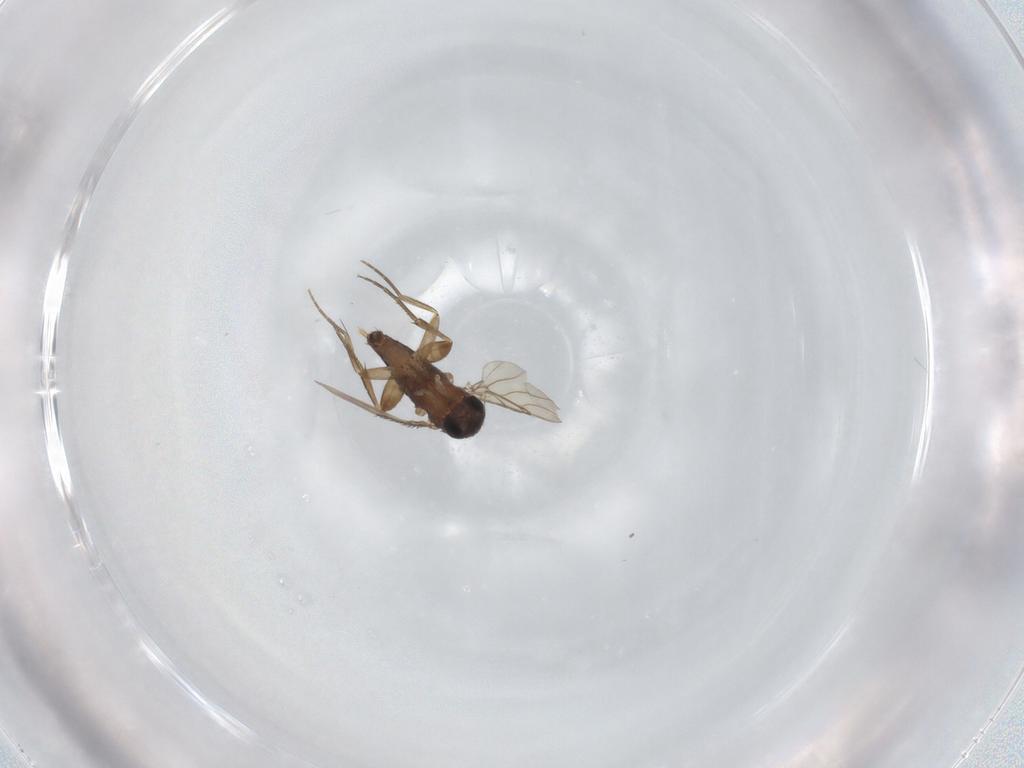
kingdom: Animalia
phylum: Arthropoda
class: Insecta
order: Diptera
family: Phoridae
